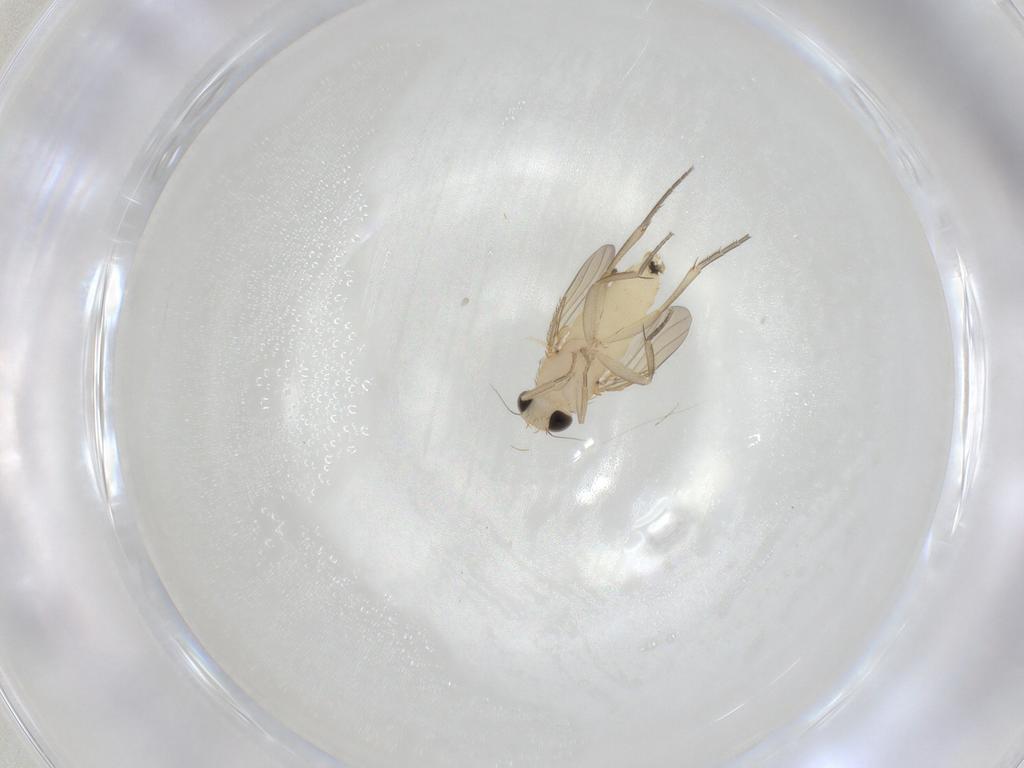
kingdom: Animalia
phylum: Arthropoda
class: Insecta
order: Diptera
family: Phoridae
